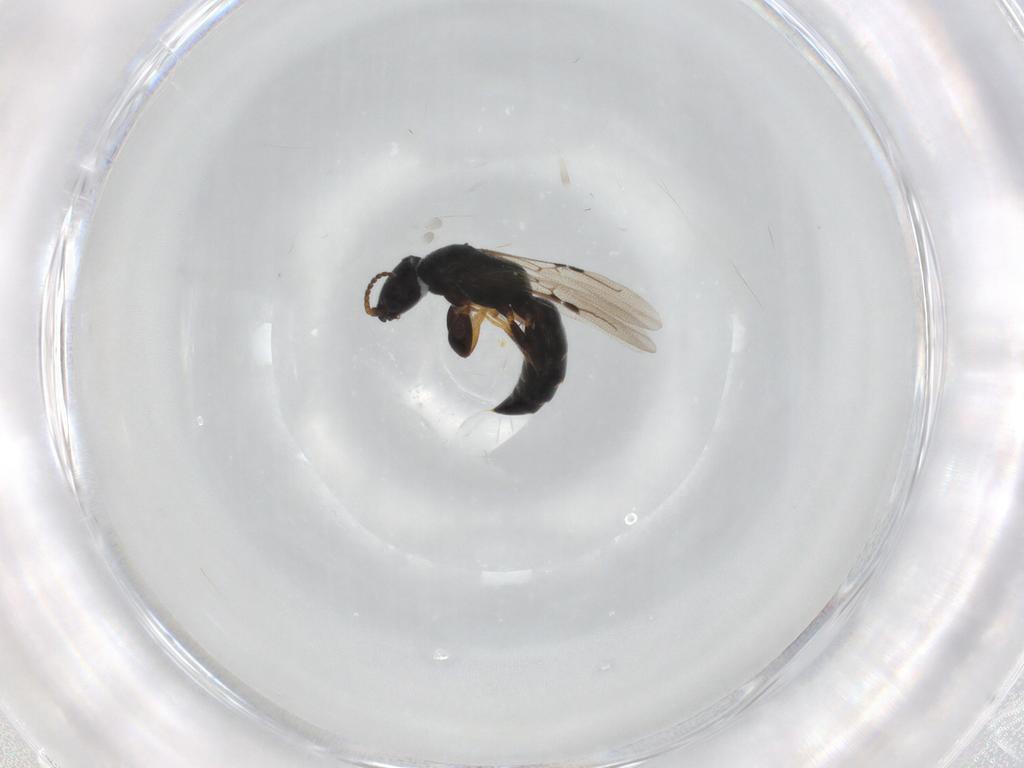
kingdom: Animalia
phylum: Arthropoda
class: Insecta
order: Hymenoptera
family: Bethylidae
